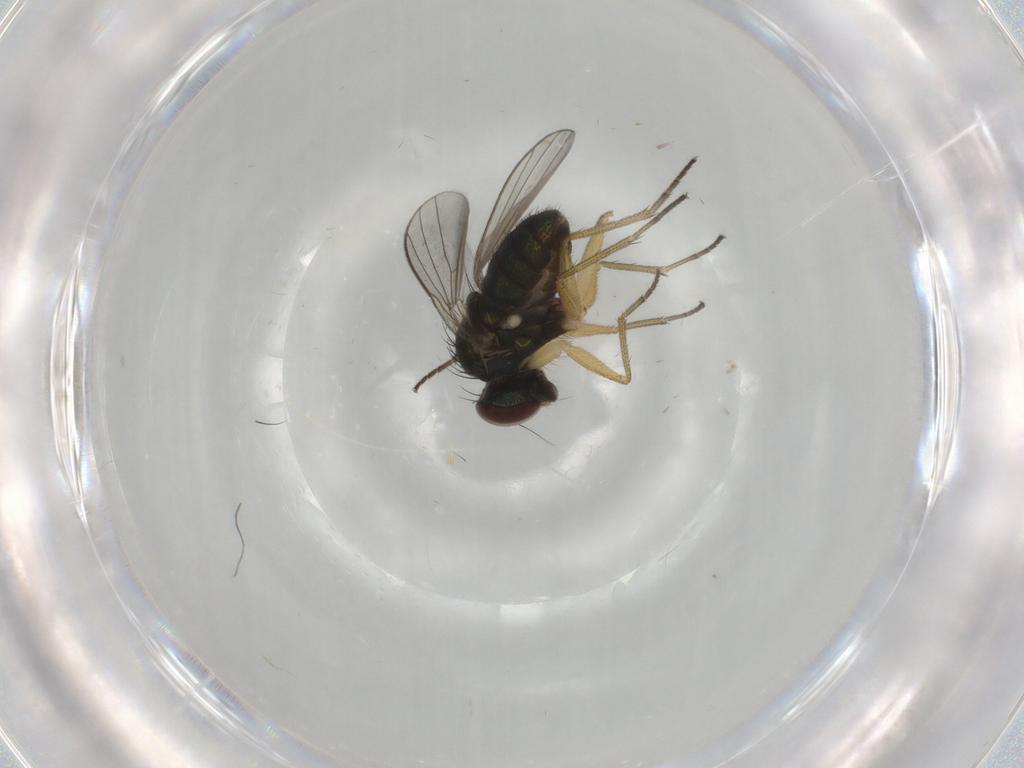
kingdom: Animalia
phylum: Arthropoda
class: Insecta
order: Diptera
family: Dolichopodidae
